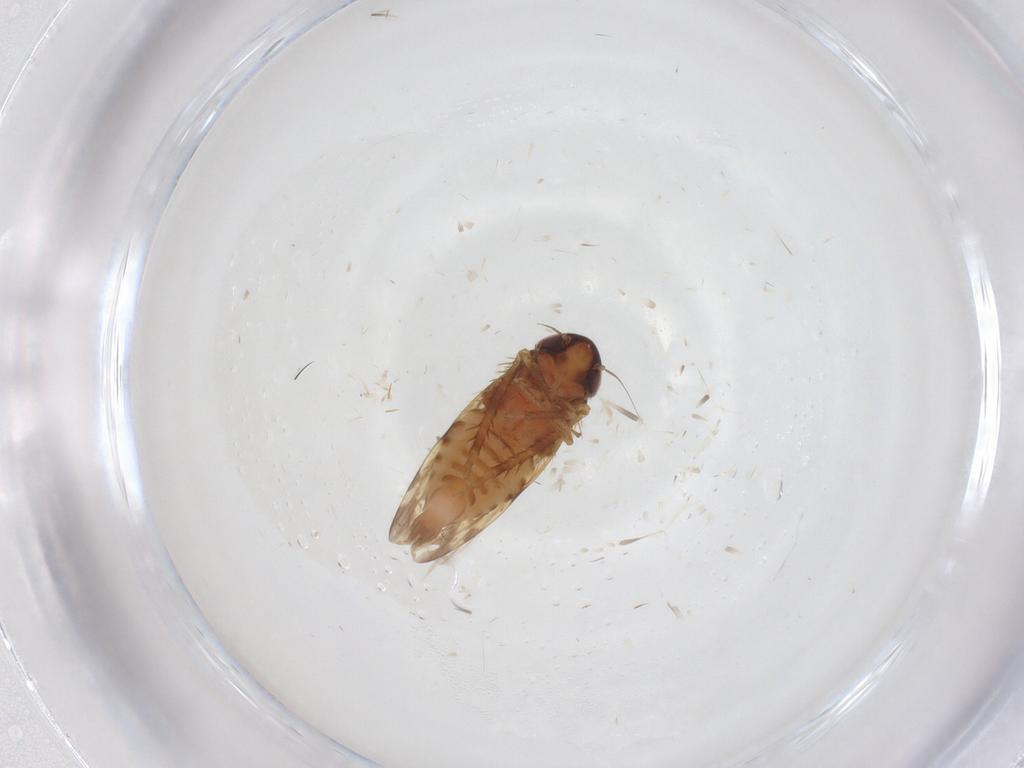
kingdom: Animalia
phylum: Arthropoda
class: Insecta
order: Hemiptera
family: Cicadellidae
